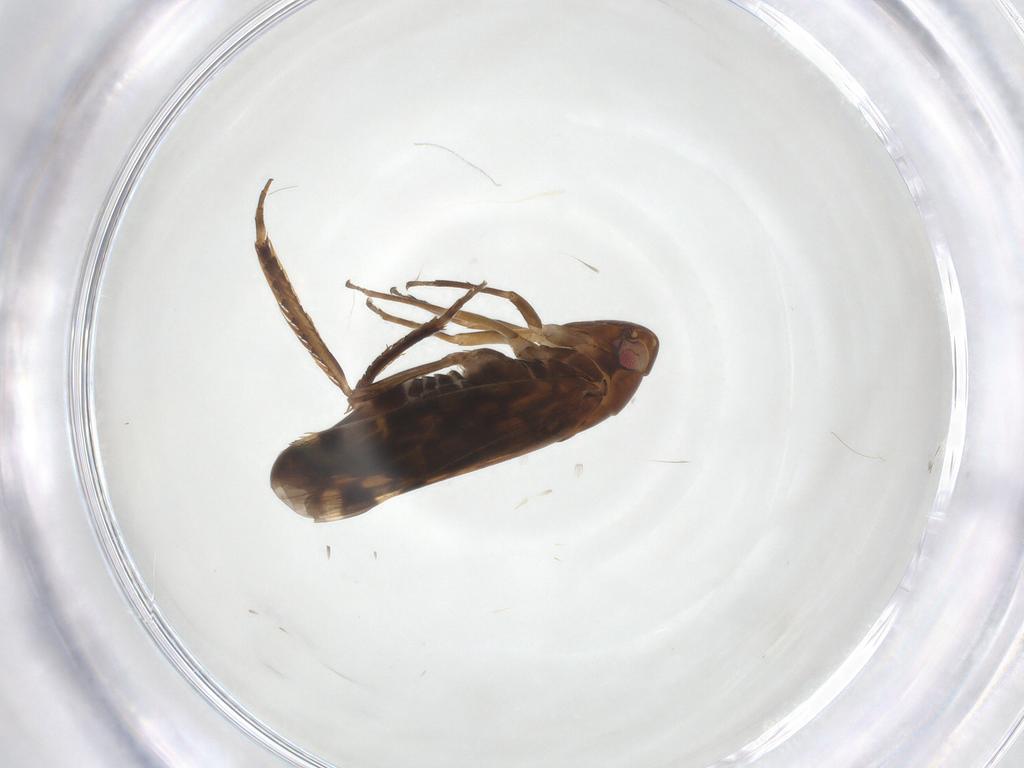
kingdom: Animalia
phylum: Arthropoda
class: Insecta
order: Hemiptera
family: Cicadellidae
